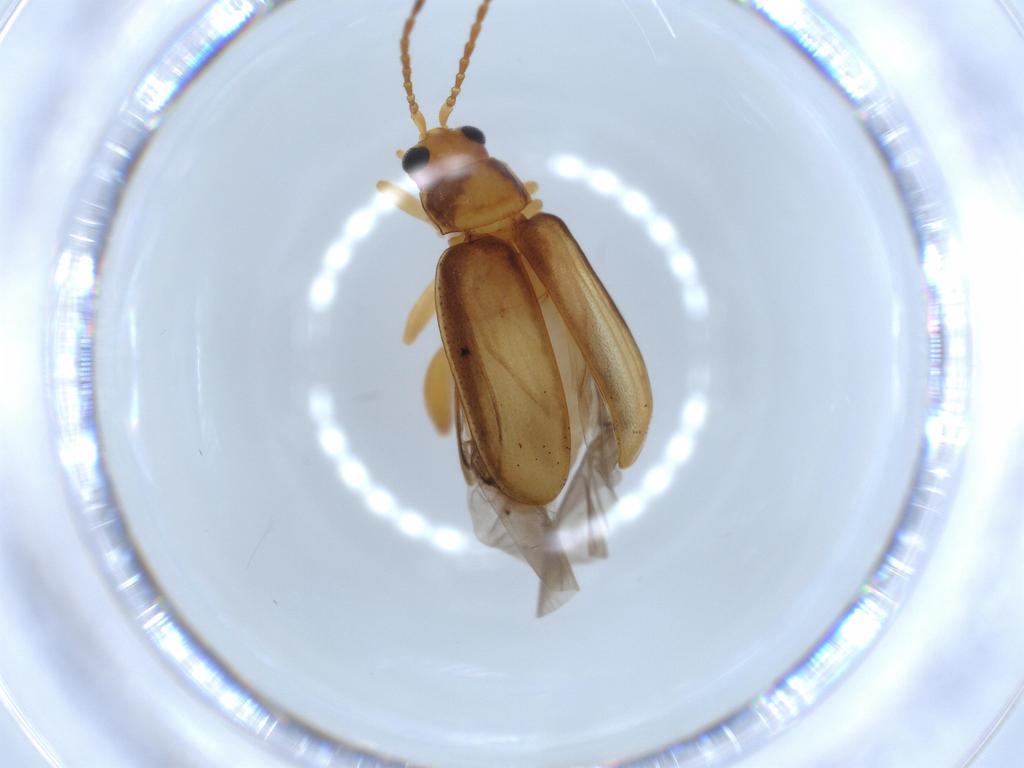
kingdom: Animalia
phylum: Arthropoda
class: Insecta
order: Coleoptera
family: Chrysomelidae
